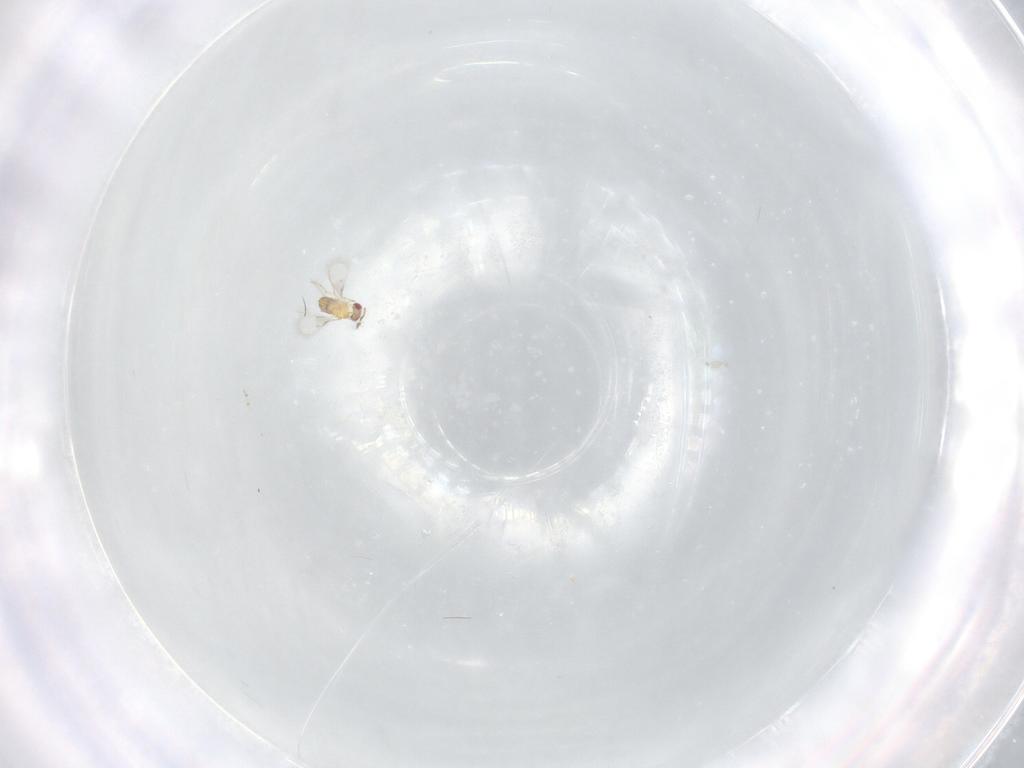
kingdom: Animalia
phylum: Arthropoda
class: Insecta
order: Hymenoptera
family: Trichogrammatidae
